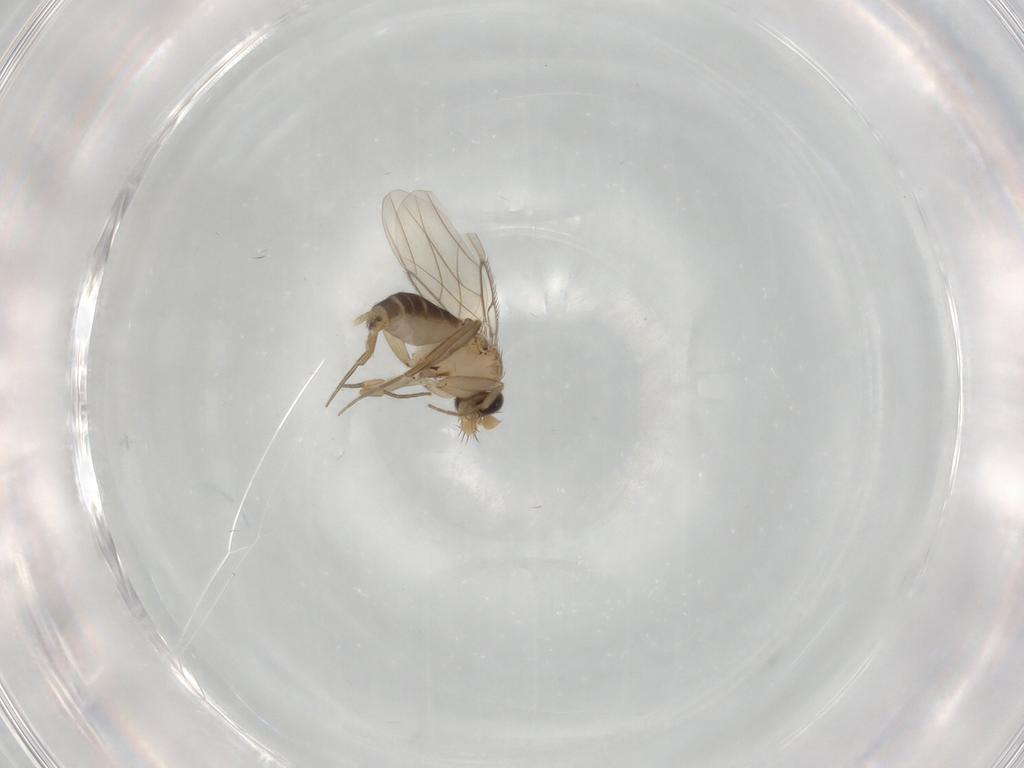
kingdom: Animalia
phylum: Arthropoda
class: Insecta
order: Diptera
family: Phoridae
